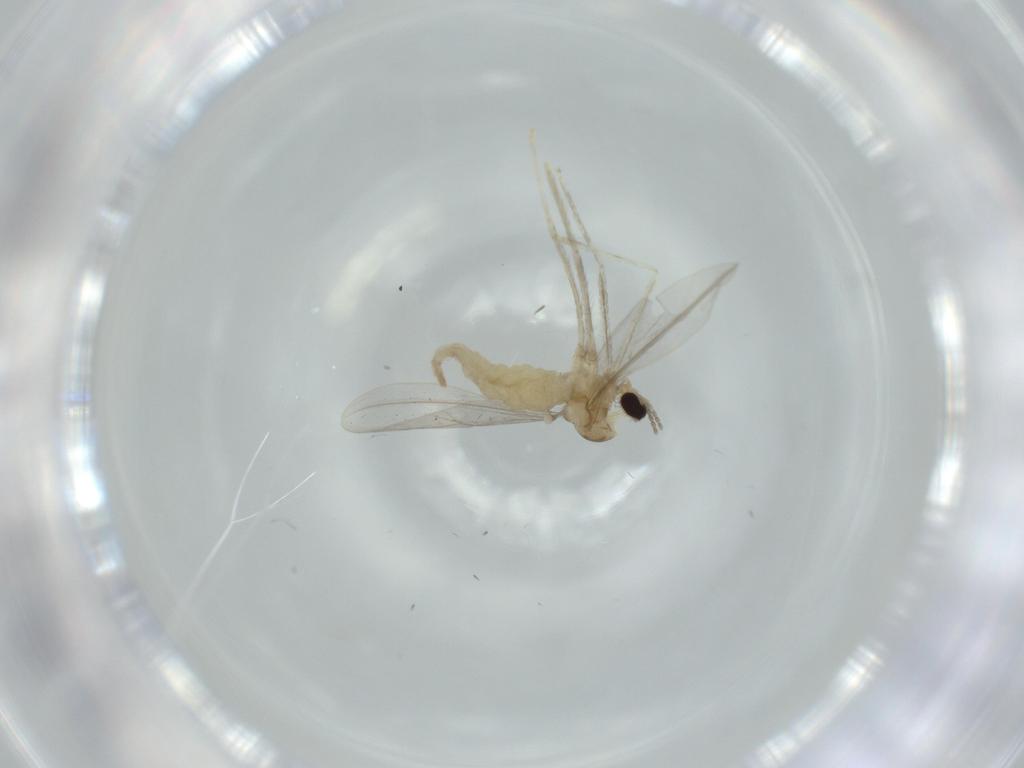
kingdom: Animalia
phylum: Arthropoda
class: Insecta
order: Diptera
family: Cecidomyiidae
